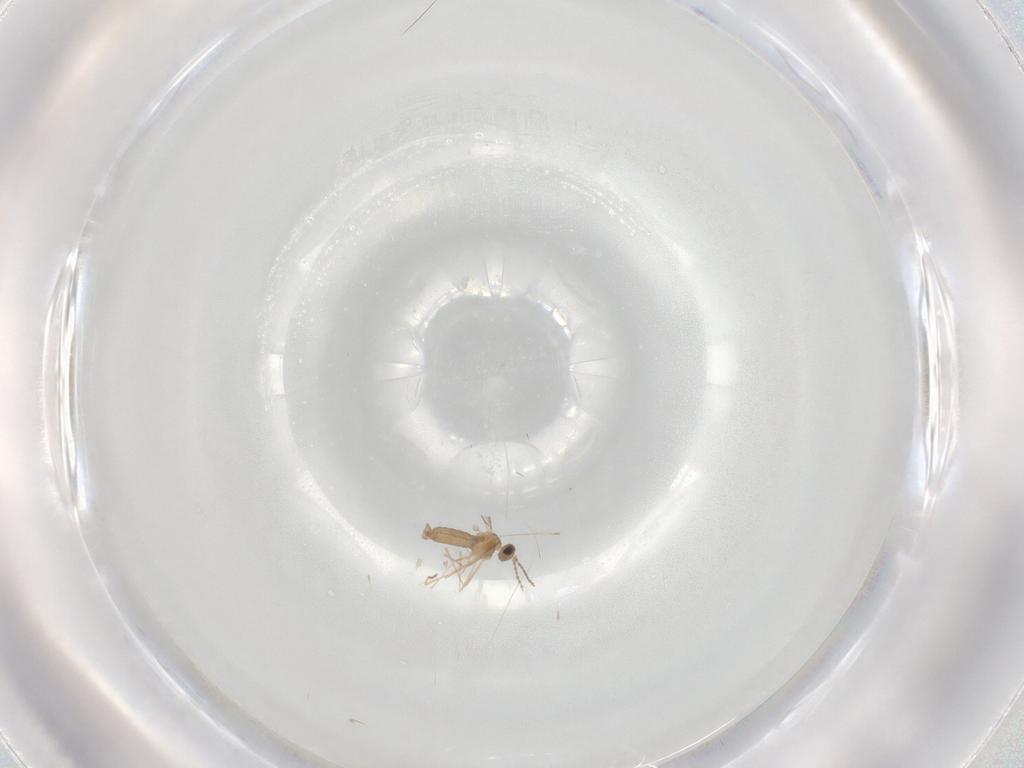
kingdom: Animalia
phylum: Arthropoda
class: Insecta
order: Diptera
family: Cecidomyiidae
